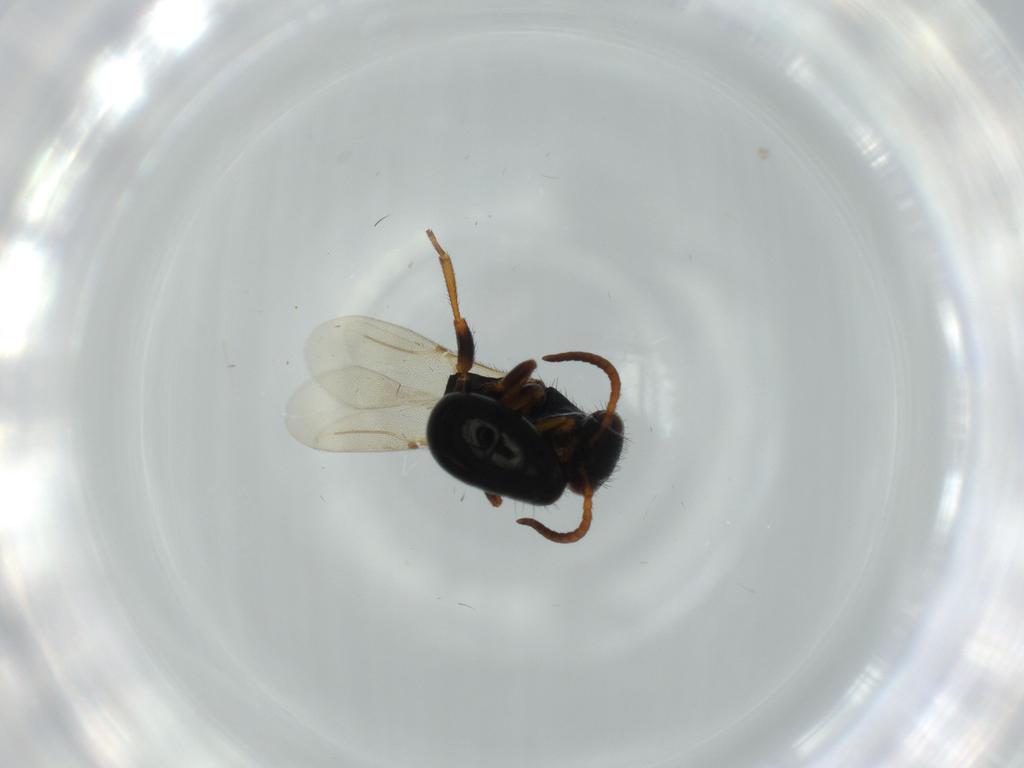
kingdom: Animalia
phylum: Arthropoda
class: Insecta
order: Hymenoptera
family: Bethylidae
